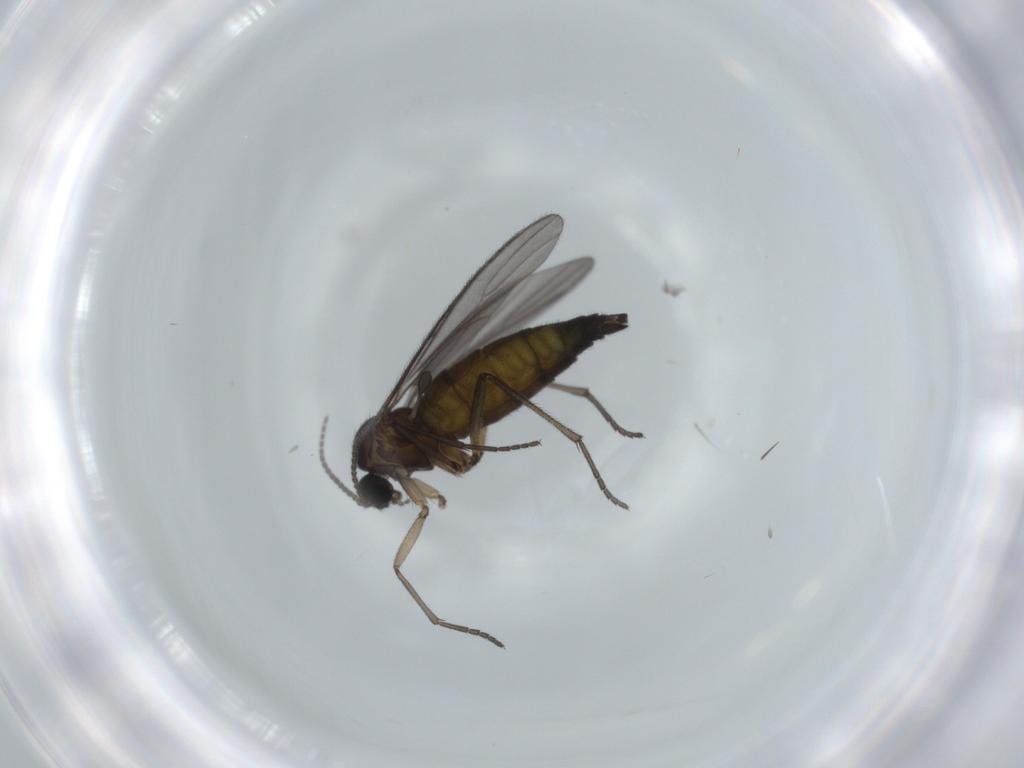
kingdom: Animalia
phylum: Arthropoda
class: Insecta
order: Diptera
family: Sciaridae
